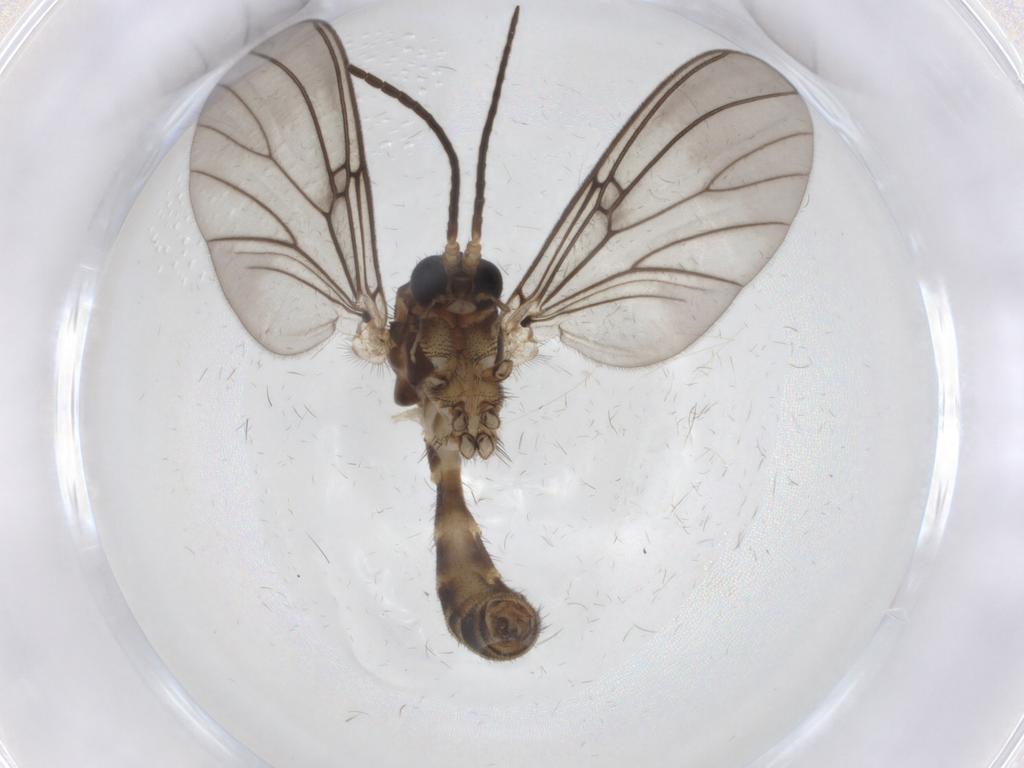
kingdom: Animalia
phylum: Arthropoda
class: Insecta
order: Diptera
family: Mycetophilidae
